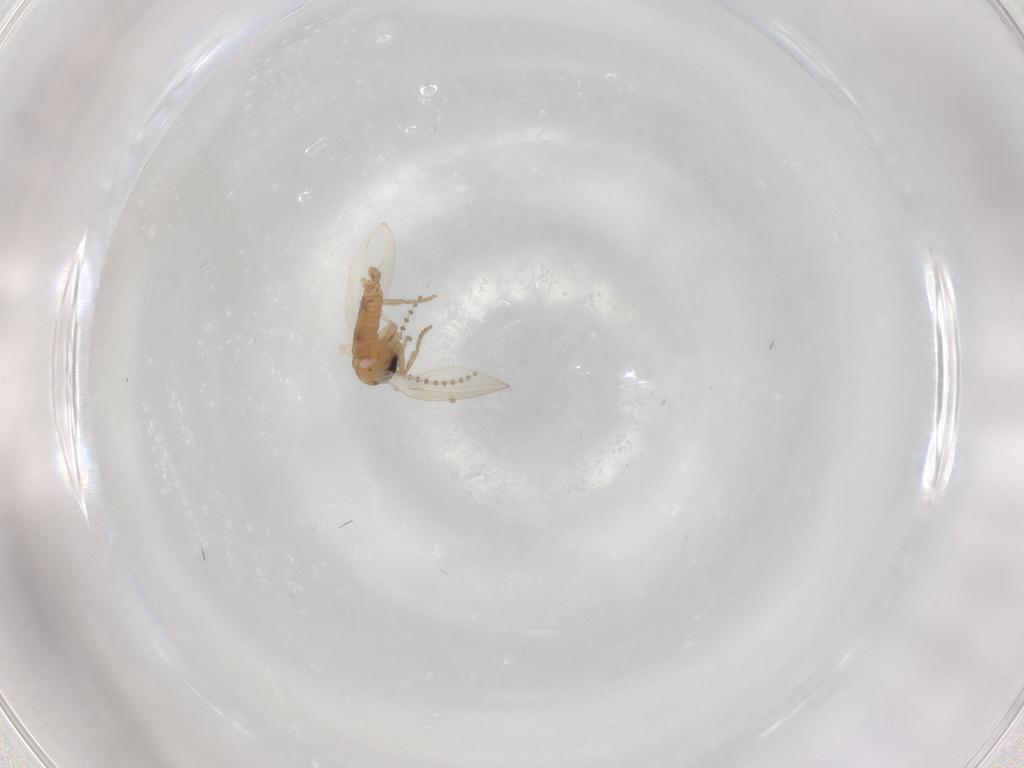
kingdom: Animalia
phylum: Arthropoda
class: Insecta
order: Diptera
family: Psychodidae
